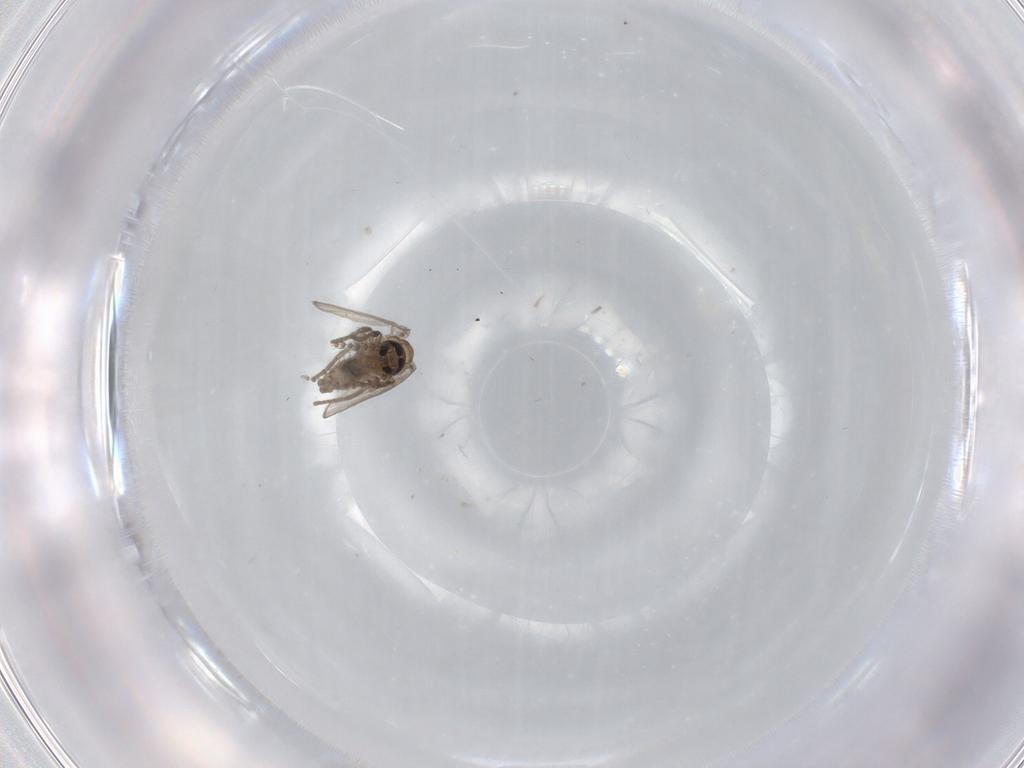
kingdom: Animalia
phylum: Arthropoda
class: Insecta
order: Diptera
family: Psychodidae
